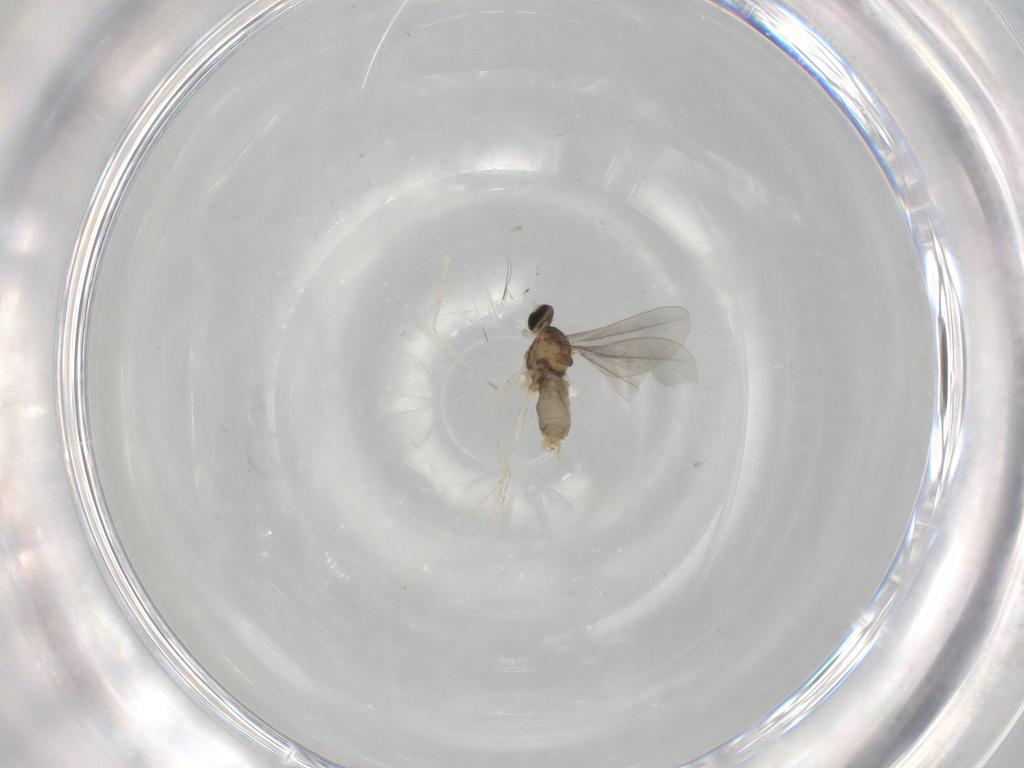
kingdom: Animalia
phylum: Arthropoda
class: Insecta
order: Diptera
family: Cecidomyiidae
